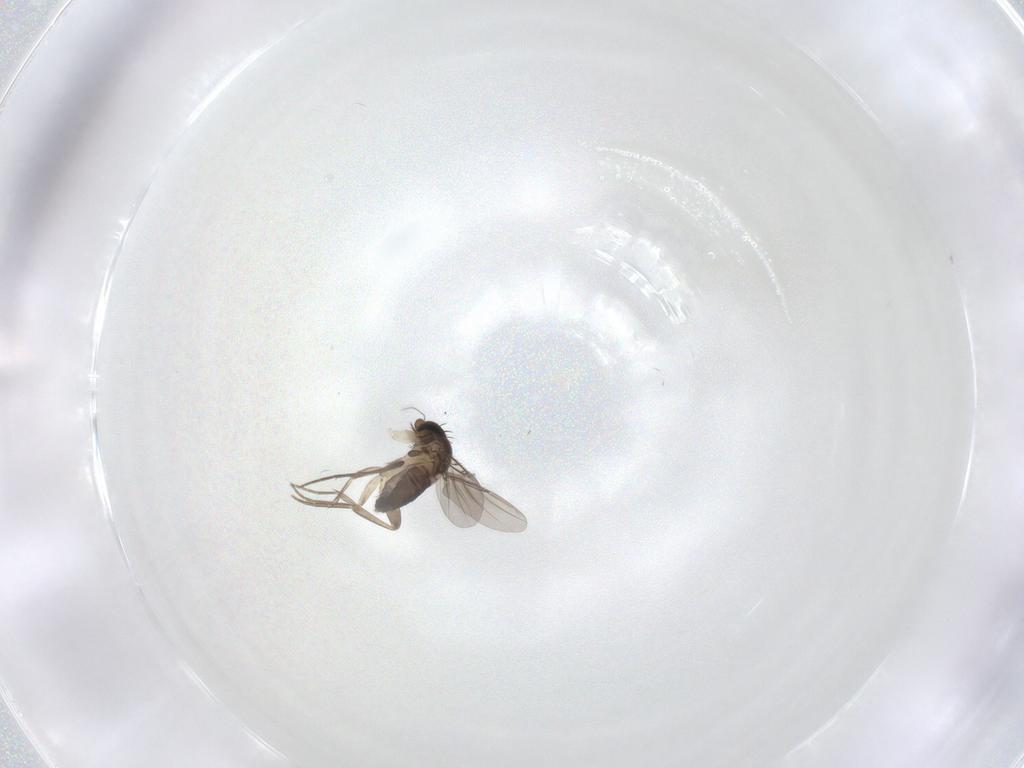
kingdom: Animalia
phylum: Arthropoda
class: Insecta
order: Diptera
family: Phoridae
